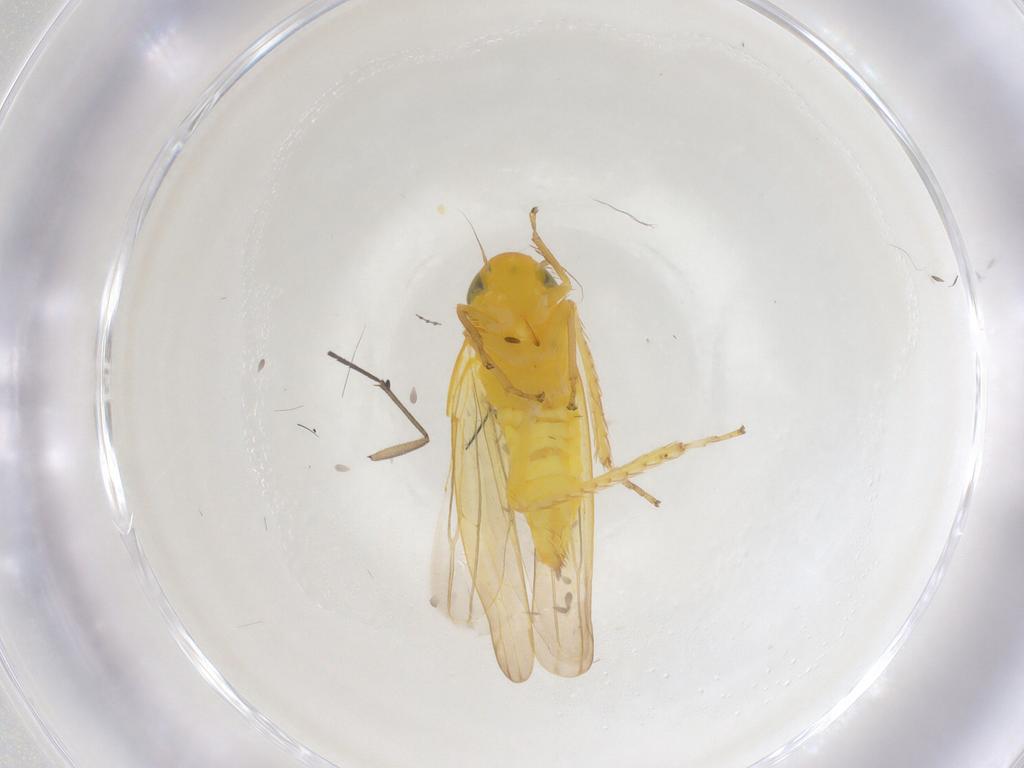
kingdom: Animalia
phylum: Arthropoda
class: Insecta
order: Hemiptera
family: Cicadellidae
